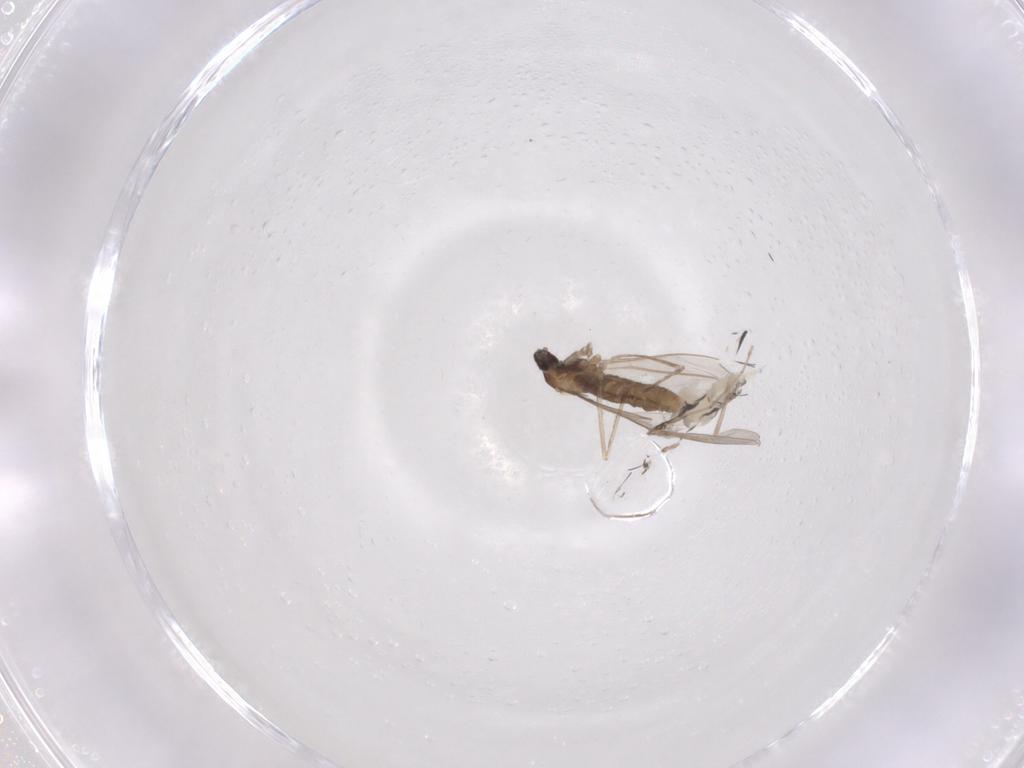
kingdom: Animalia
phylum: Arthropoda
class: Insecta
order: Diptera
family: Cecidomyiidae
